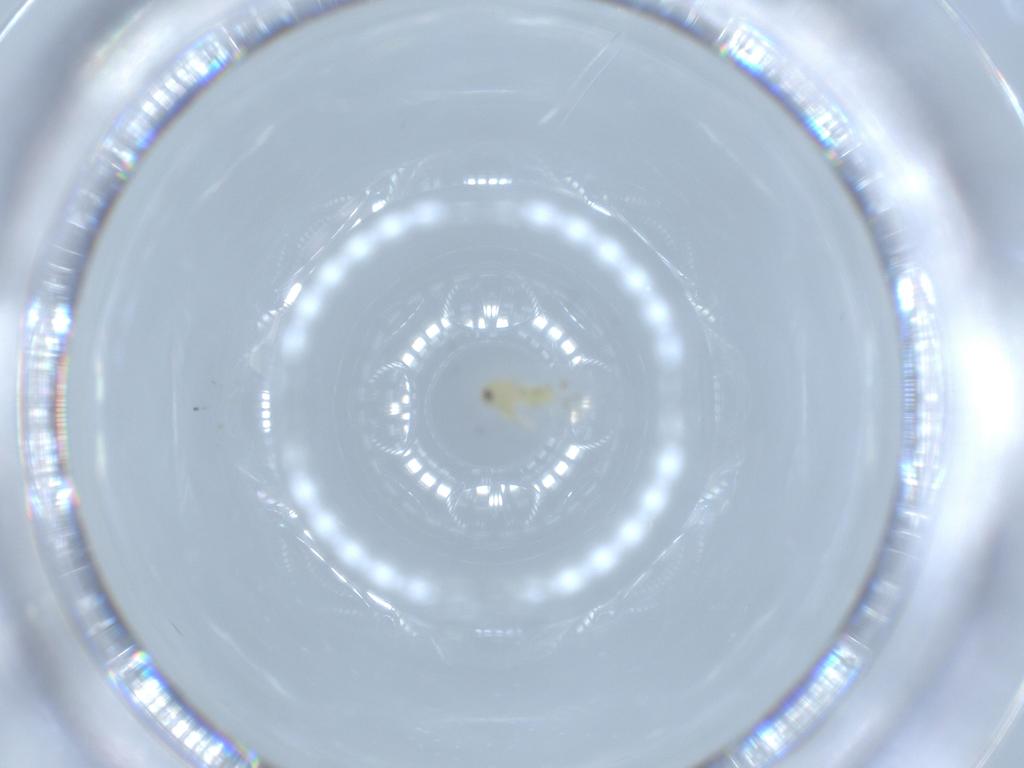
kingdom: Animalia
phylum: Arthropoda
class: Insecta
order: Hemiptera
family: Aleyrodidae
